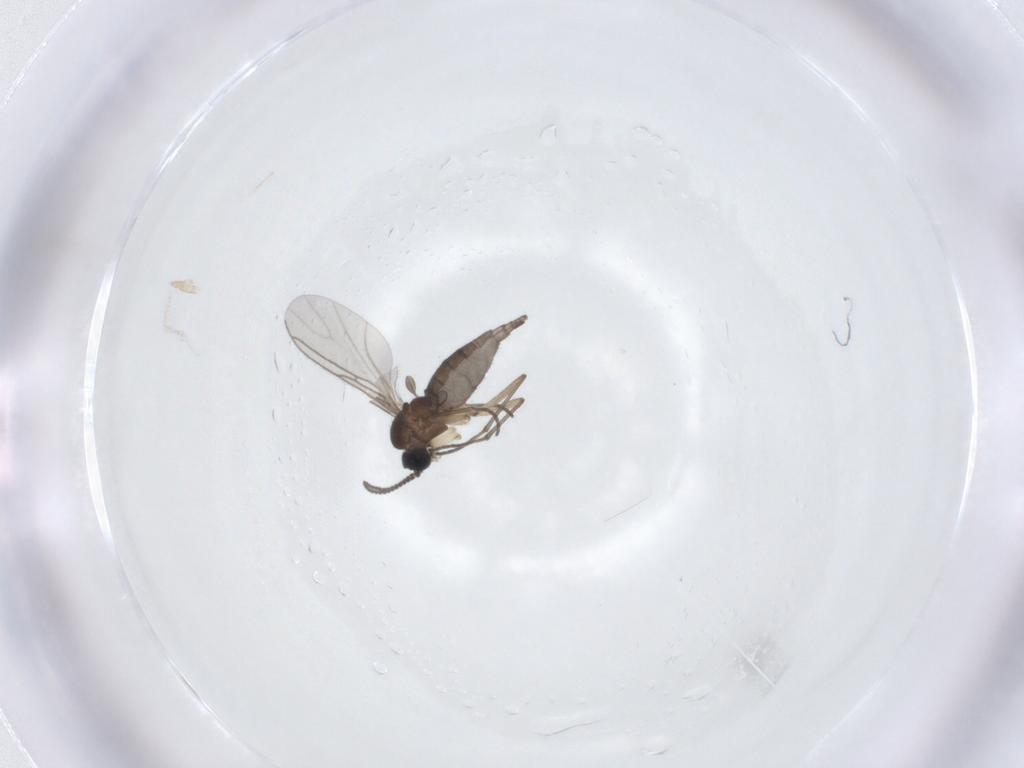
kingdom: Animalia
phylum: Arthropoda
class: Insecta
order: Diptera
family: Sciaridae
